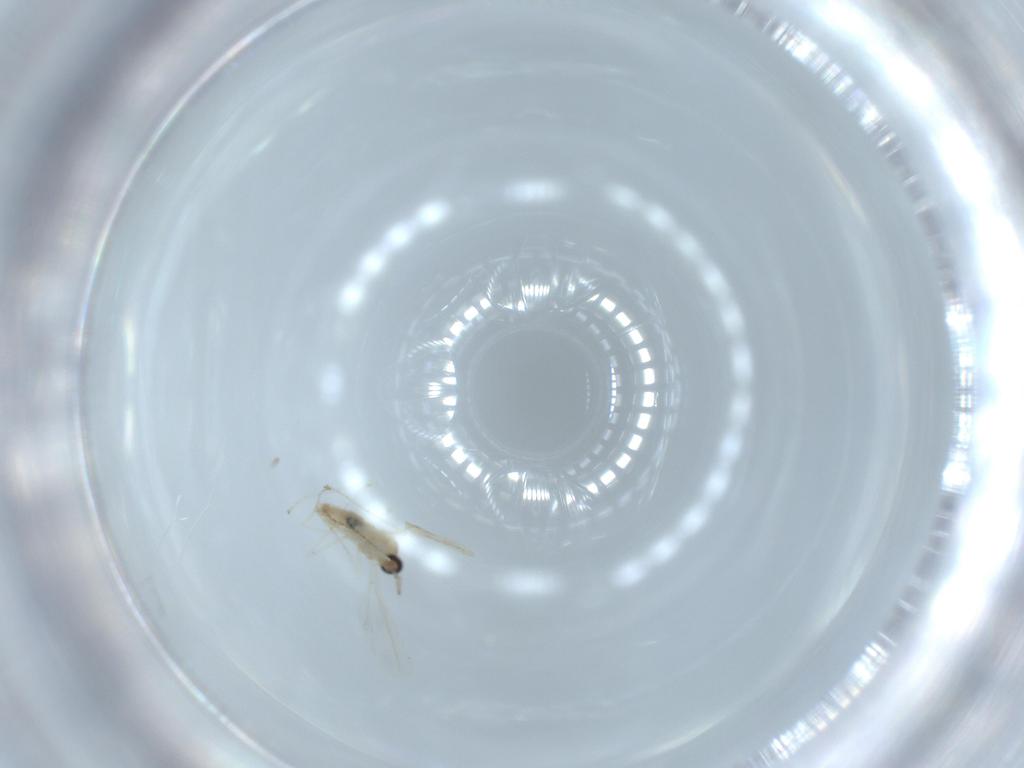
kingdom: Animalia
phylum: Arthropoda
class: Insecta
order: Diptera
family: Cecidomyiidae
